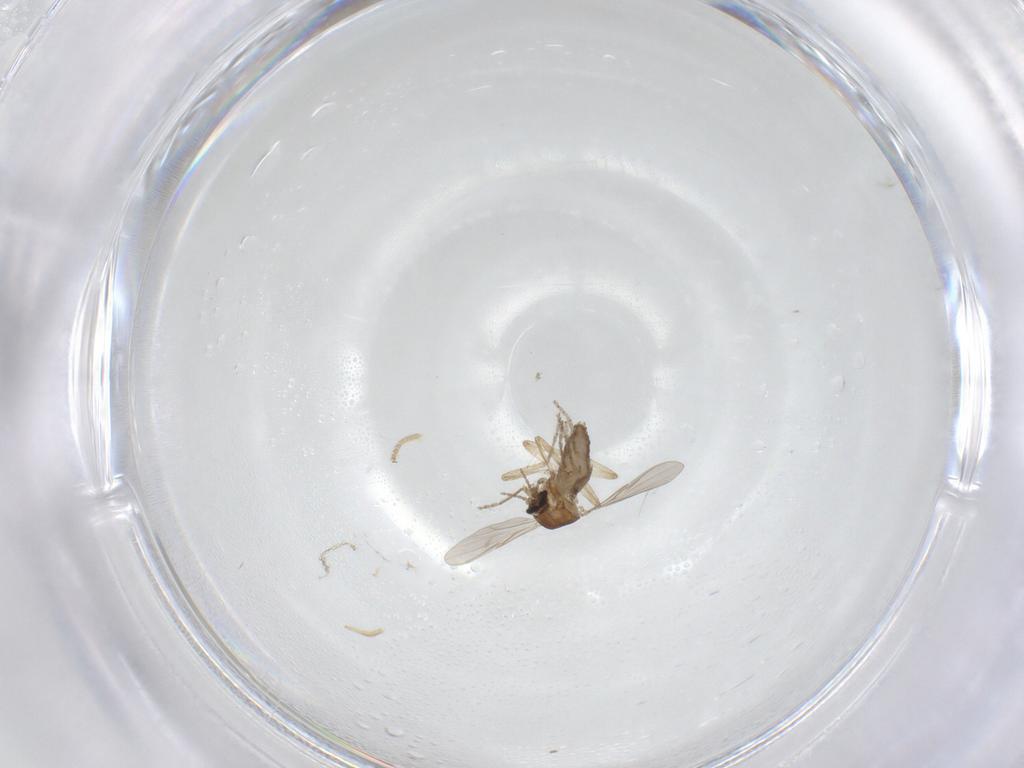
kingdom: Animalia
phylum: Arthropoda
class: Insecta
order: Diptera
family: Ceratopogonidae
